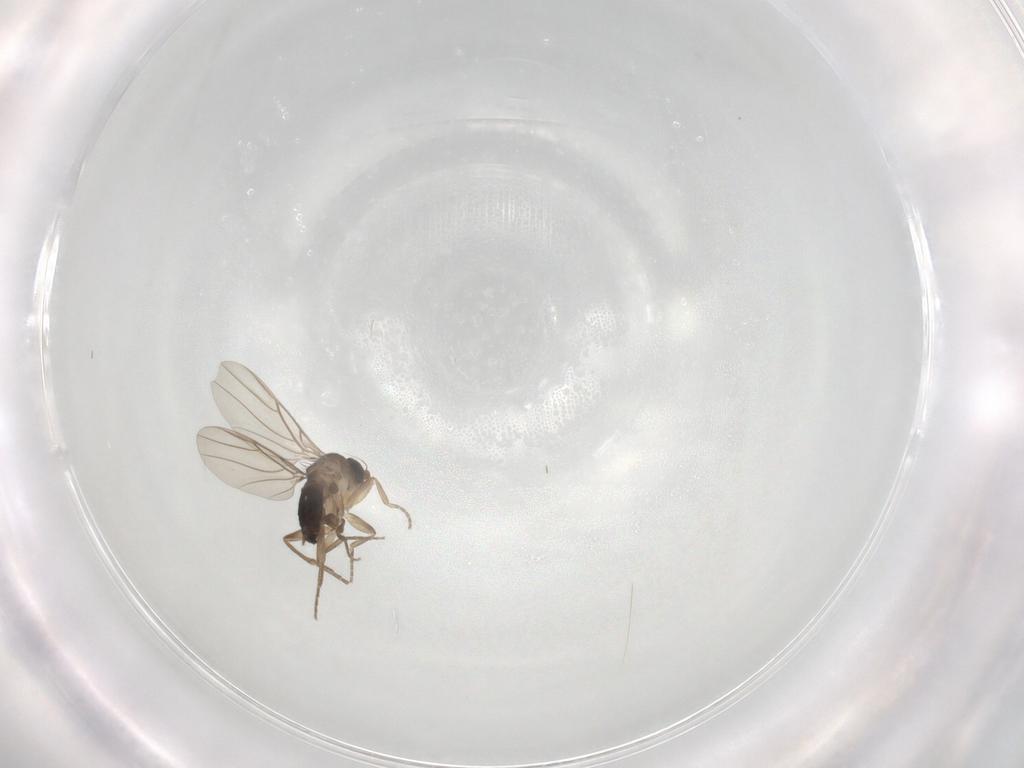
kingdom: Animalia
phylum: Arthropoda
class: Insecta
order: Diptera
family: Phoridae
